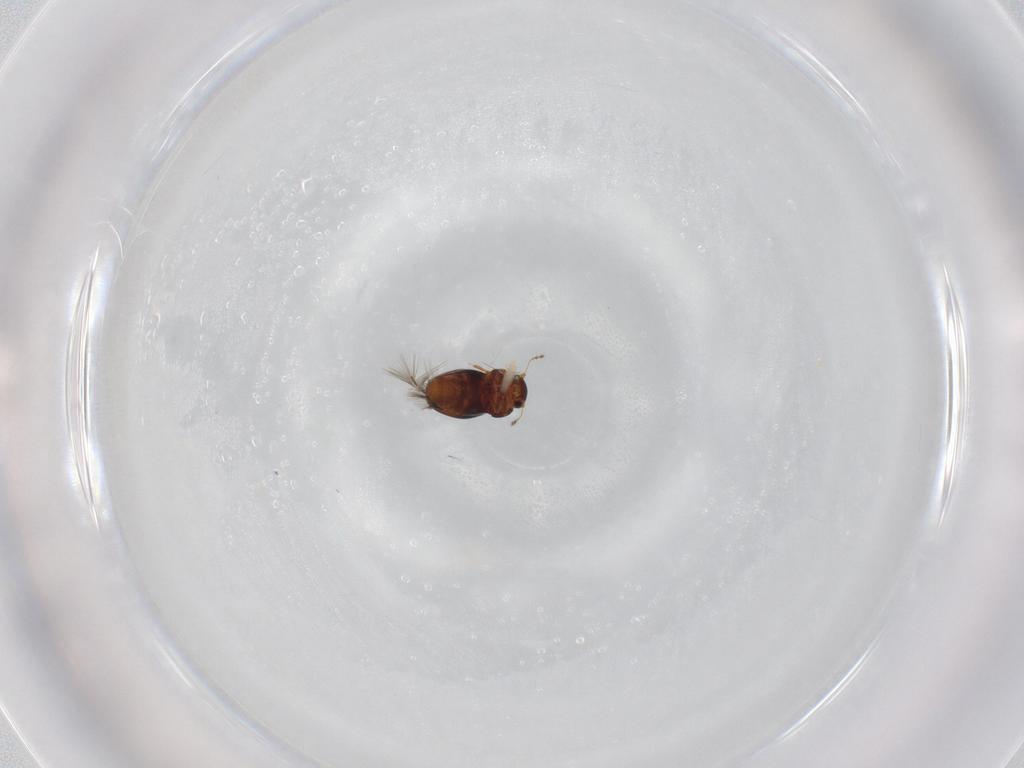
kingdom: Animalia
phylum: Arthropoda
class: Insecta
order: Coleoptera
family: Ptiliidae
